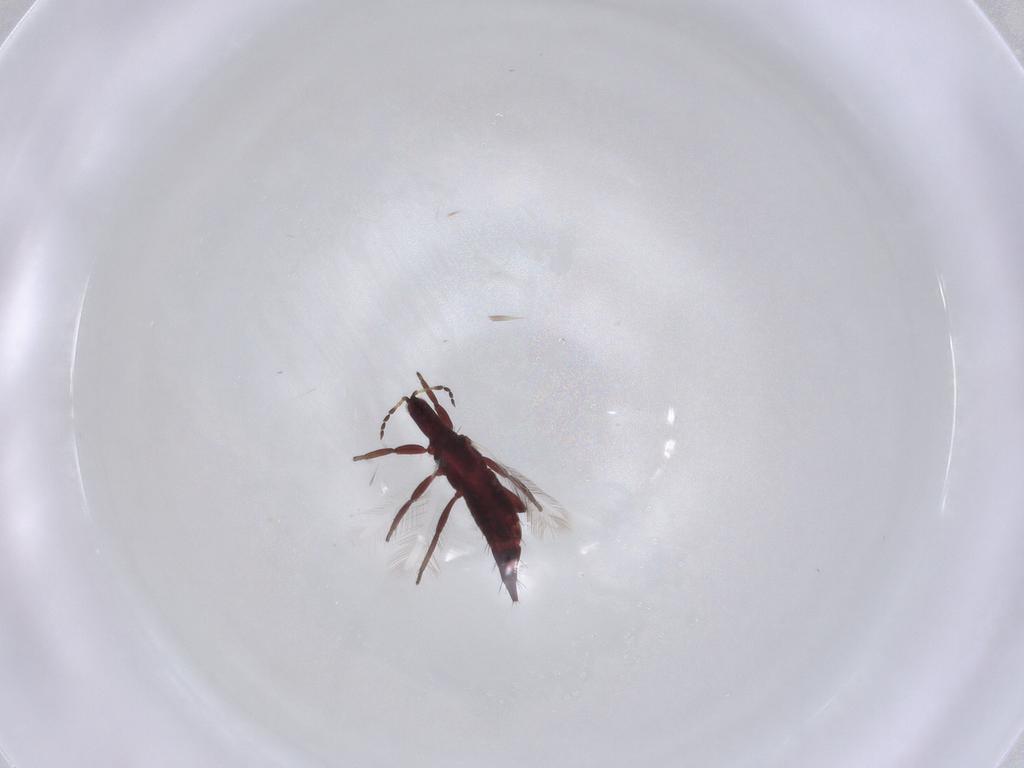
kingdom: Animalia
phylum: Arthropoda
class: Insecta
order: Thysanoptera
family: Phlaeothripidae
